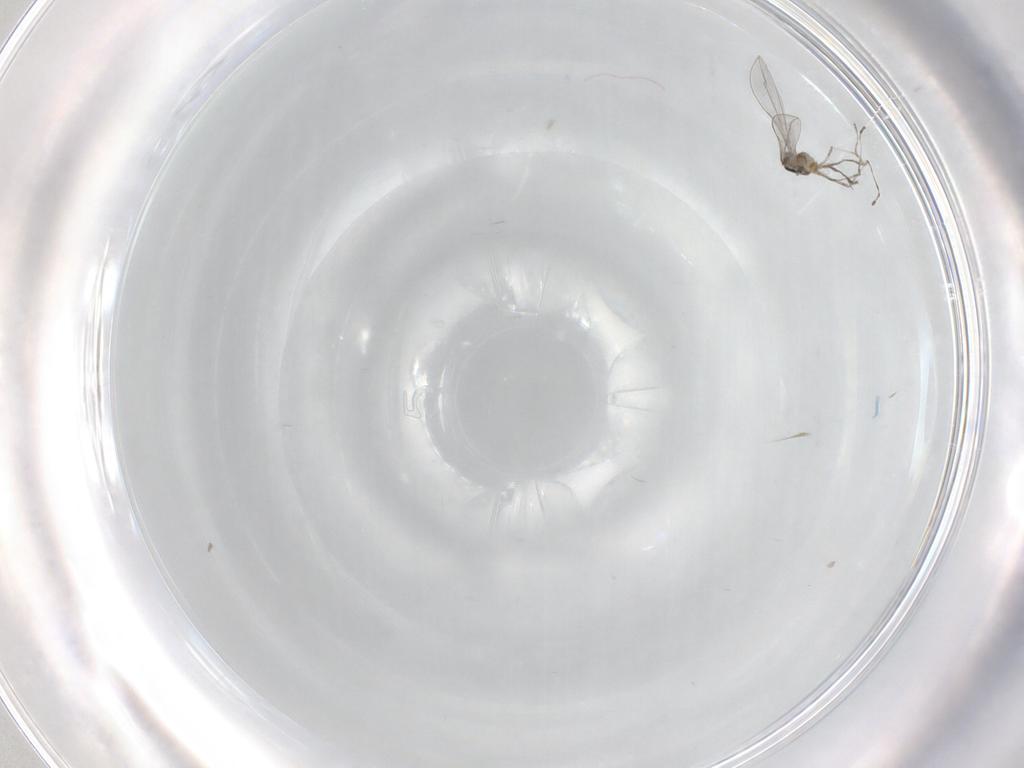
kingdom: Animalia
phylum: Arthropoda
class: Insecta
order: Diptera
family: Cecidomyiidae
